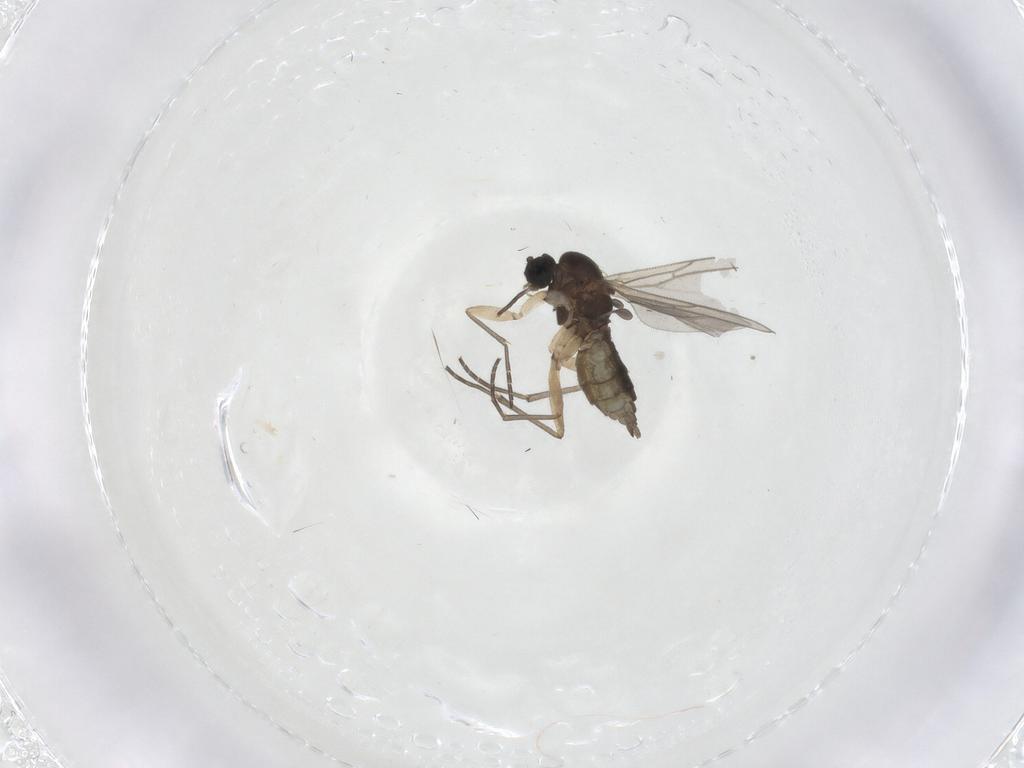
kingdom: Animalia
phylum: Arthropoda
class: Insecta
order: Diptera
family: Sciaridae
